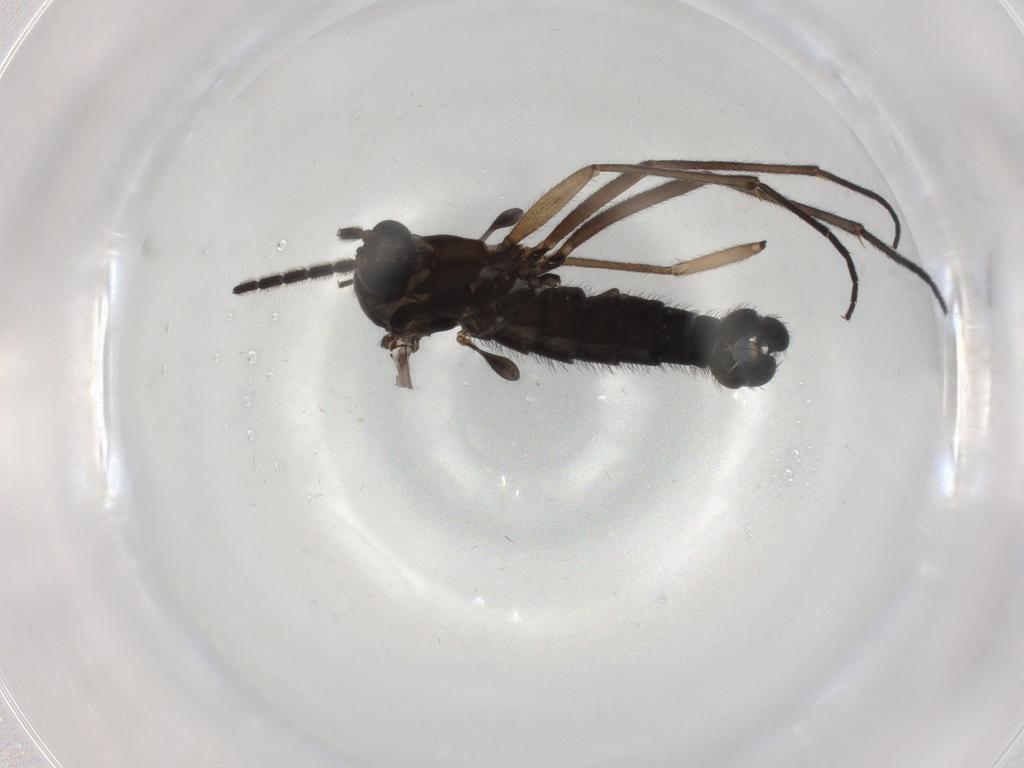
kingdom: Animalia
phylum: Arthropoda
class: Insecta
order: Diptera
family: Sciaridae
